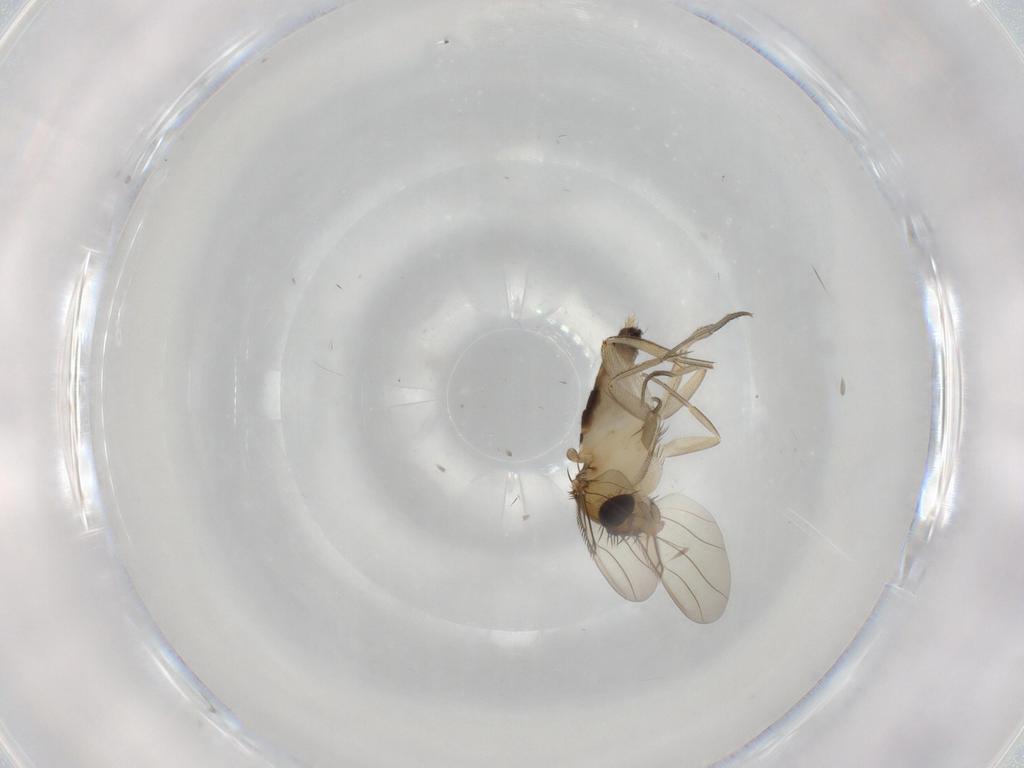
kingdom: Animalia
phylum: Arthropoda
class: Insecta
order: Diptera
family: Phoridae
